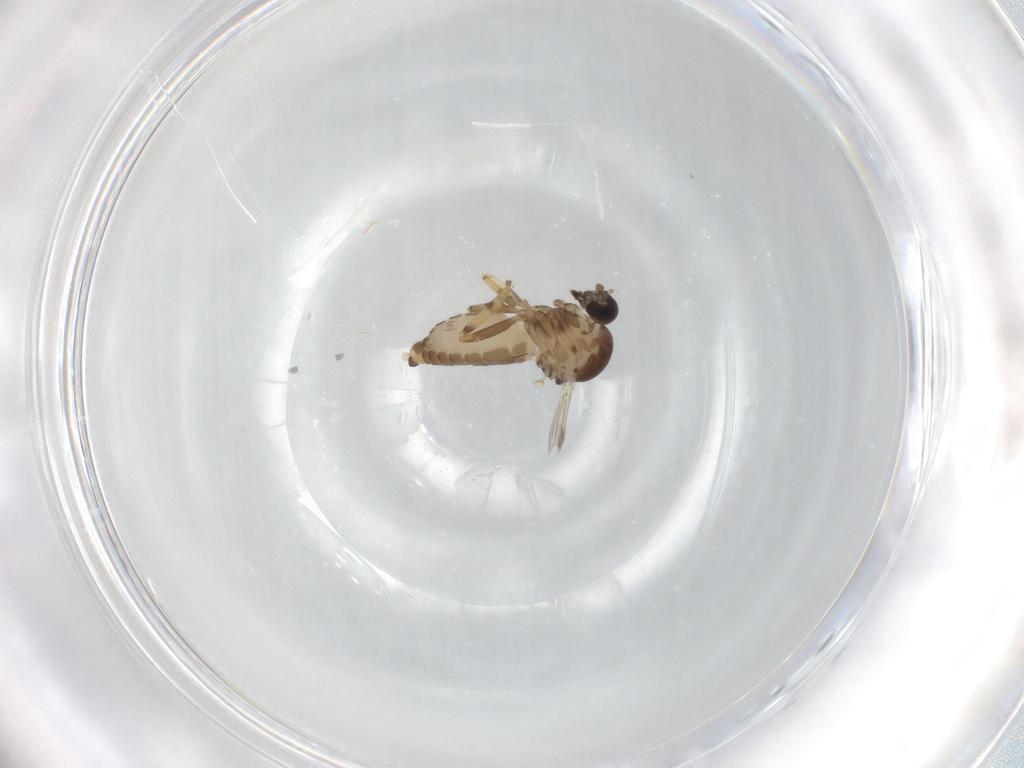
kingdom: Animalia
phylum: Arthropoda
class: Insecta
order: Diptera
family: Ceratopogonidae
